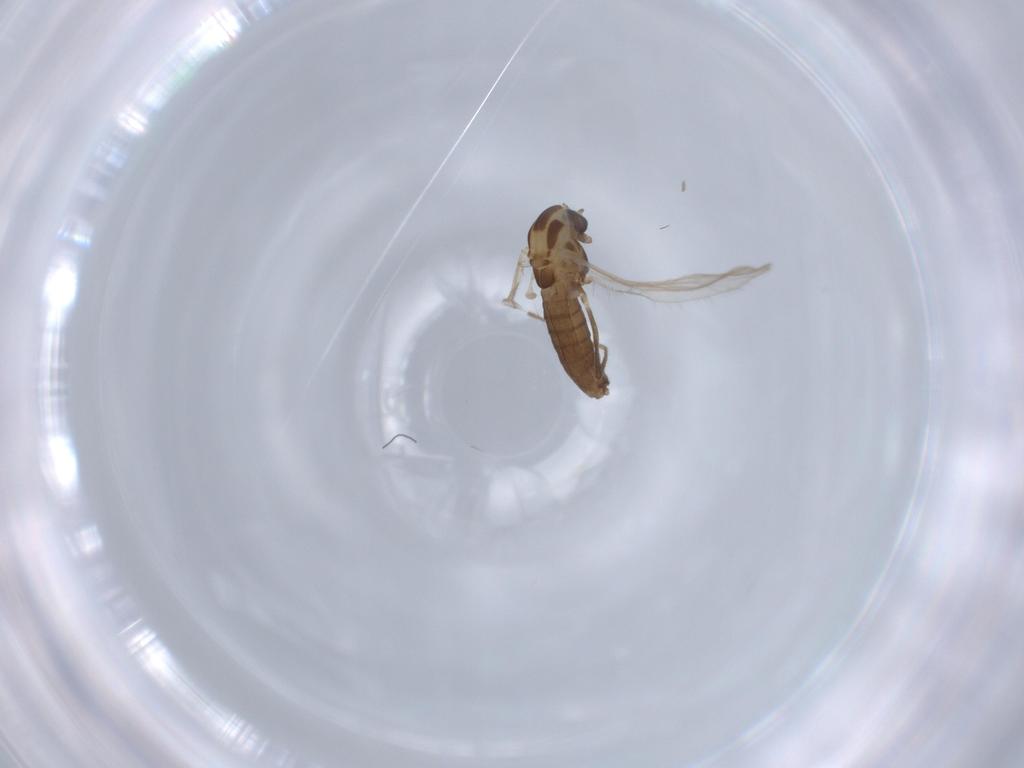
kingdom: Animalia
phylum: Arthropoda
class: Insecta
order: Diptera
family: Chironomidae
